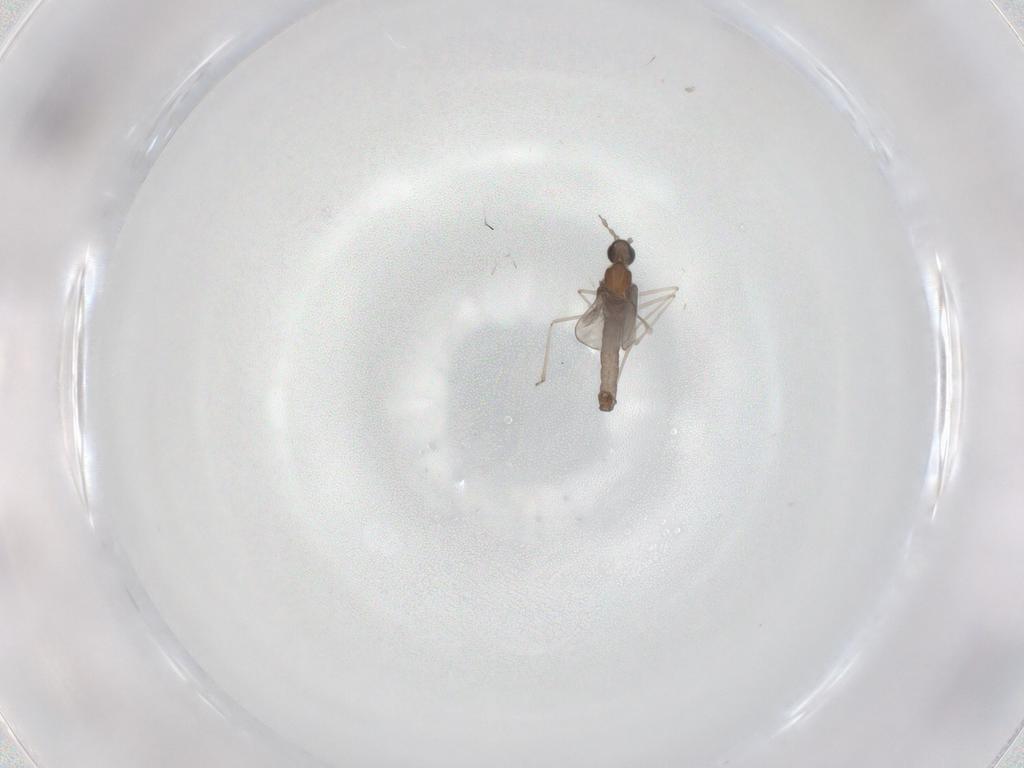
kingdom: Animalia
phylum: Arthropoda
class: Insecta
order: Diptera
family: Cecidomyiidae
